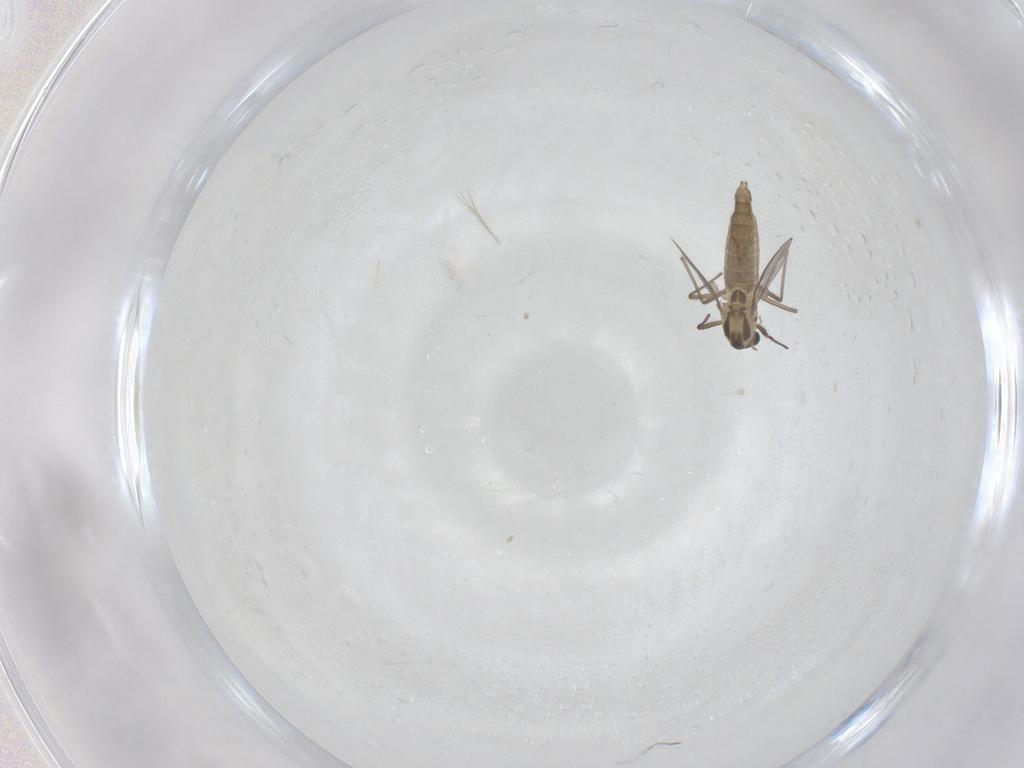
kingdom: Animalia
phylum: Arthropoda
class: Insecta
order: Diptera
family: Chironomidae
